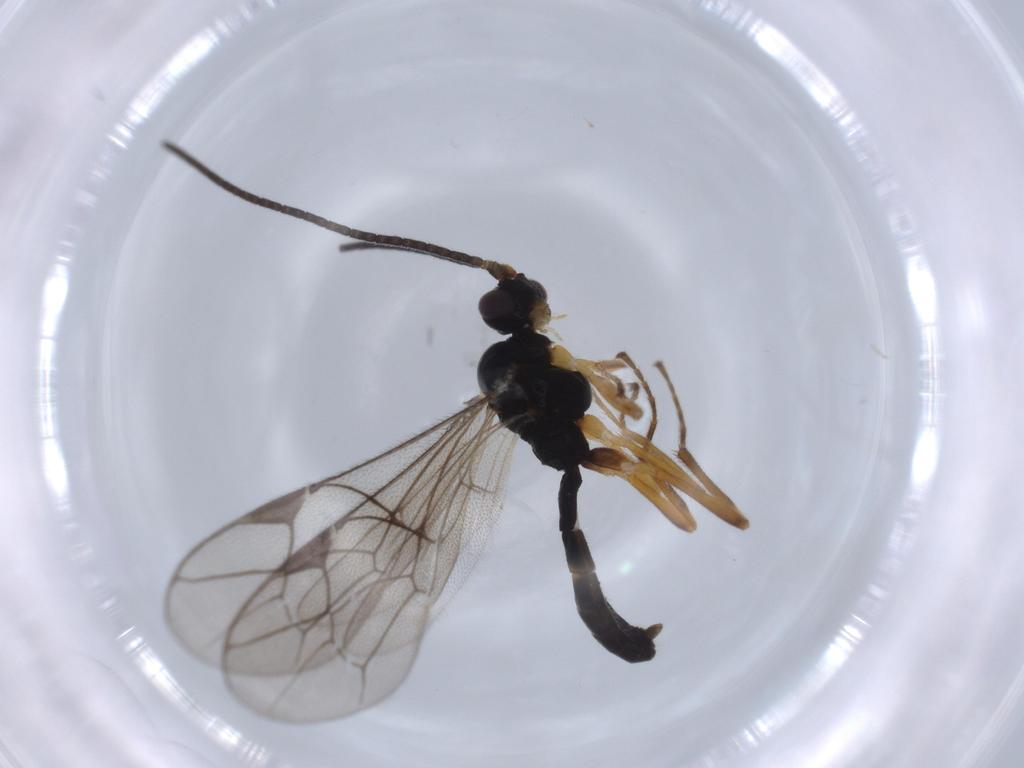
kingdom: Animalia
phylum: Arthropoda
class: Insecta
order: Hymenoptera
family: Ichneumonidae
